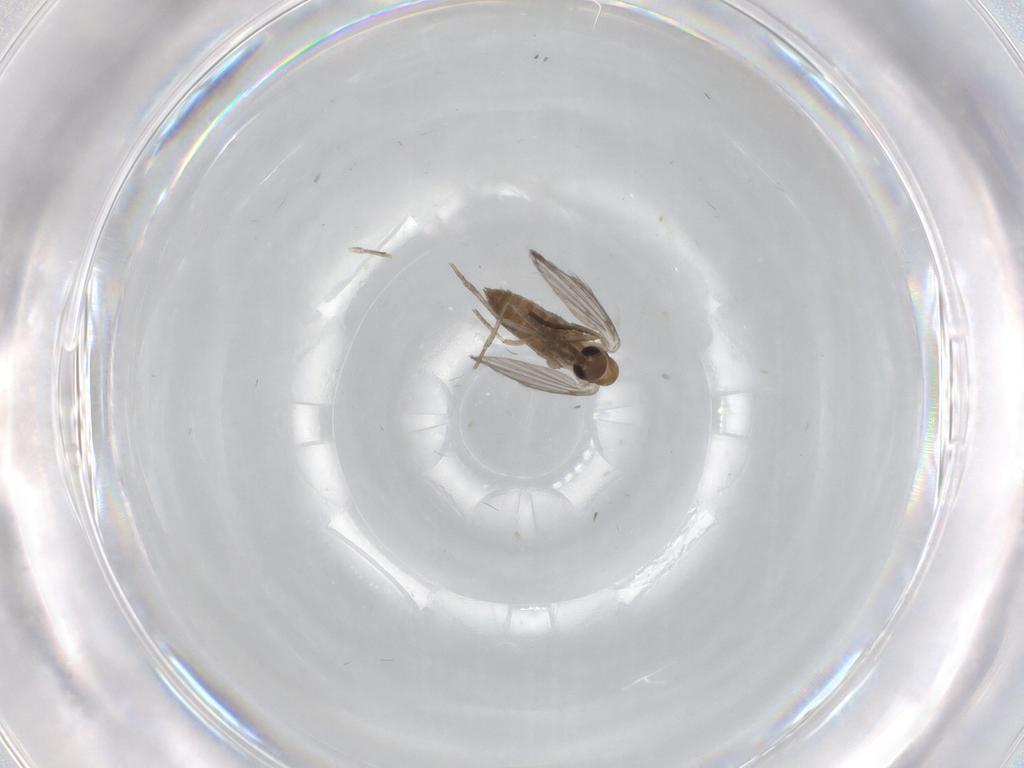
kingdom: Animalia
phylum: Arthropoda
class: Insecta
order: Diptera
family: Psychodidae
